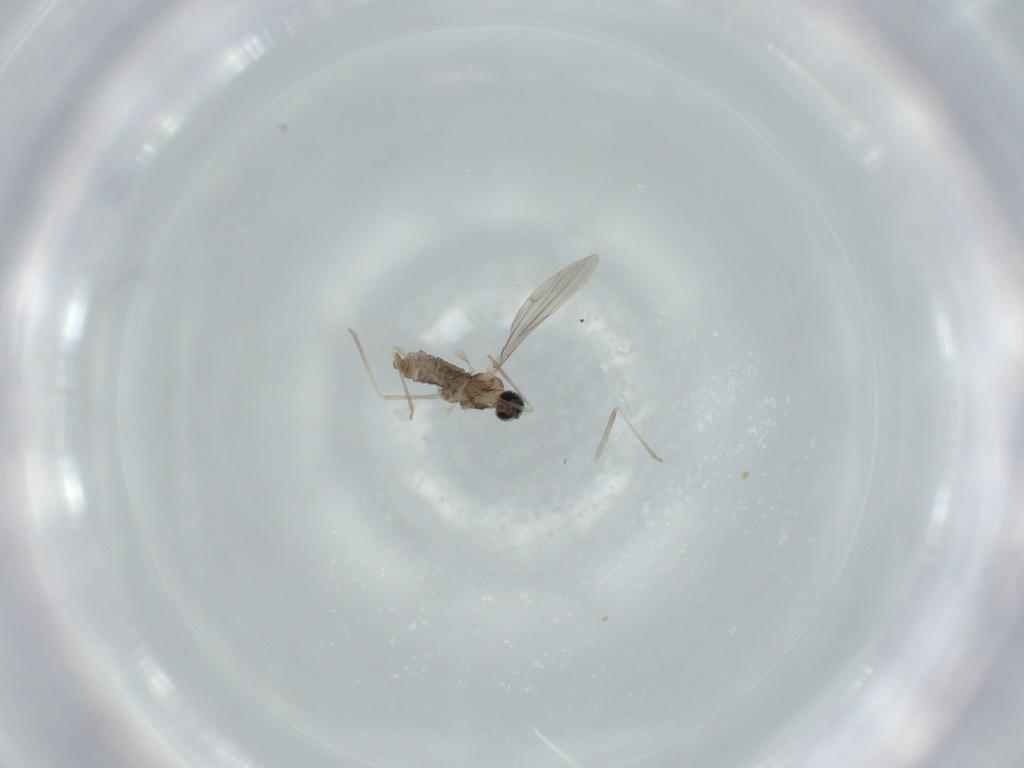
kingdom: Animalia
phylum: Arthropoda
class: Insecta
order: Diptera
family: Cecidomyiidae
